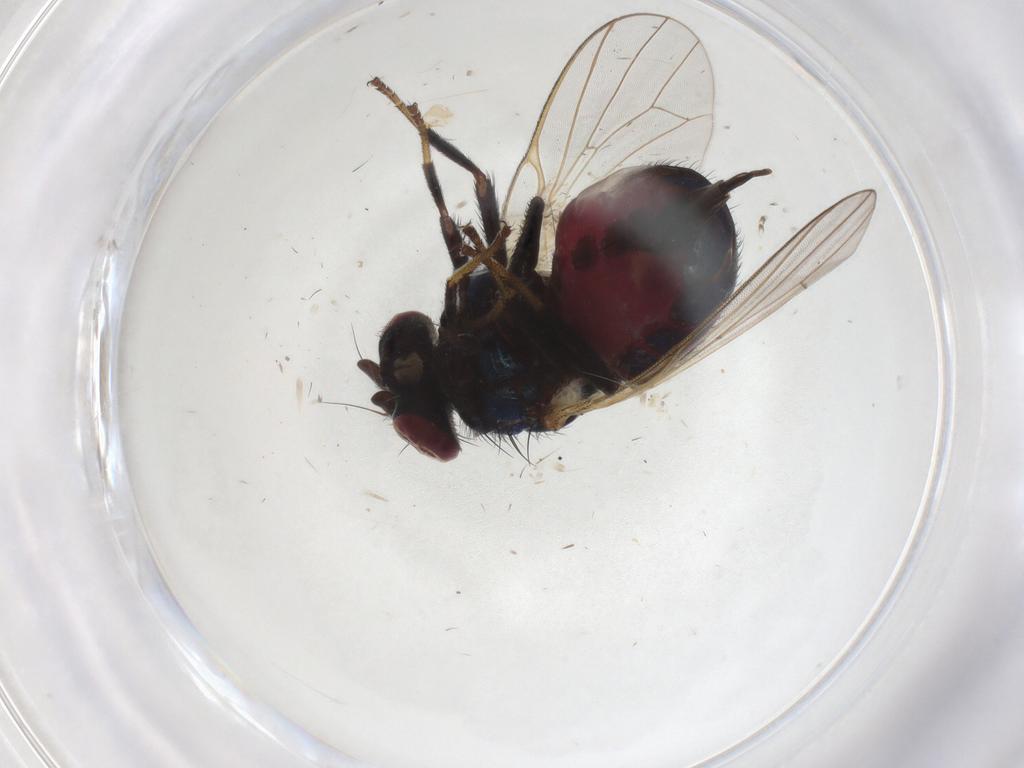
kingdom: Animalia
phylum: Arthropoda
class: Insecta
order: Diptera
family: Lonchaeidae
